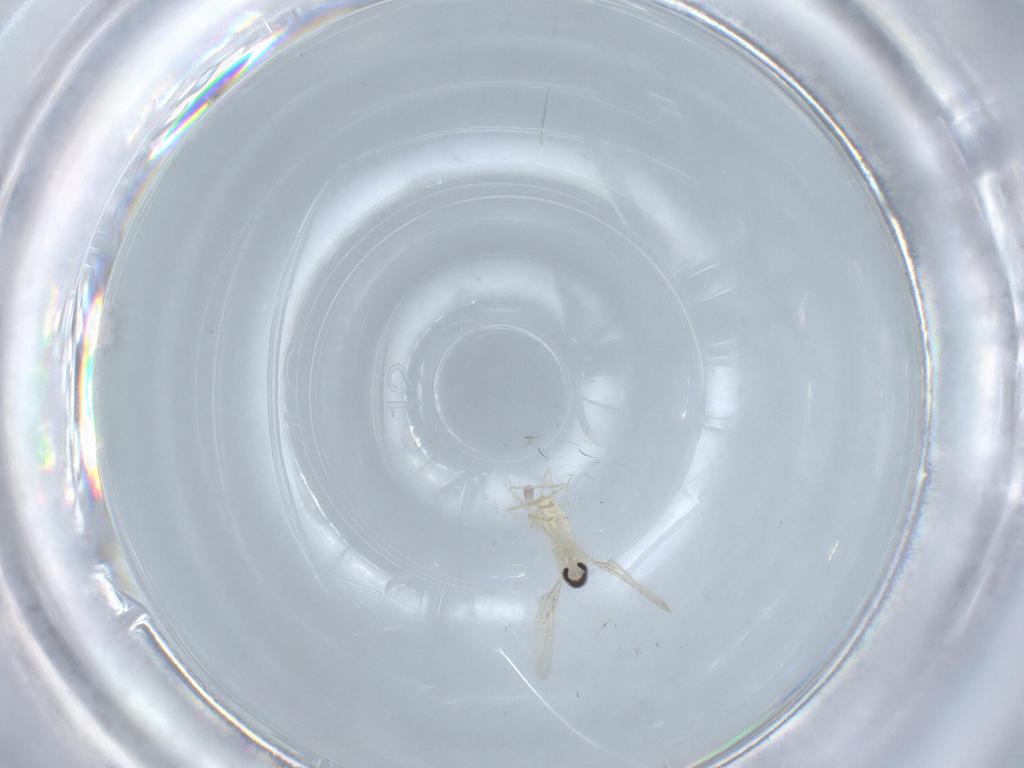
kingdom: Animalia
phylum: Arthropoda
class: Insecta
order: Diptera
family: Cecidomyiidae
